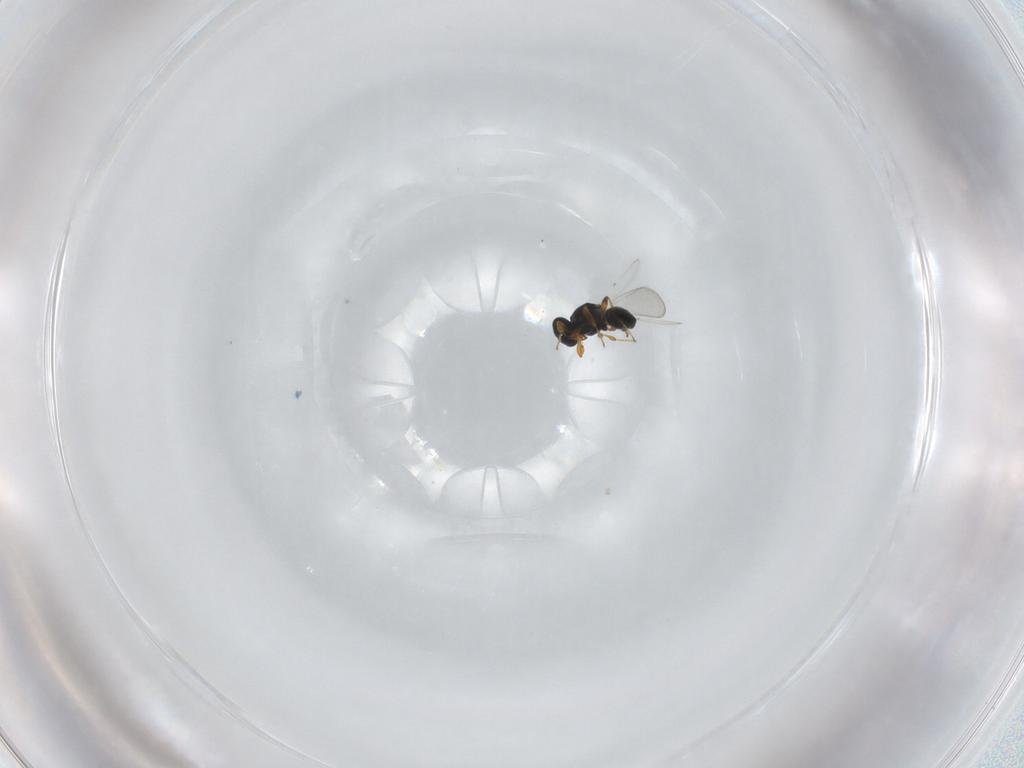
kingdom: Animalia
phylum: Arthropoda
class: Insecta
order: Hymenoptera
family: Platygastridae
